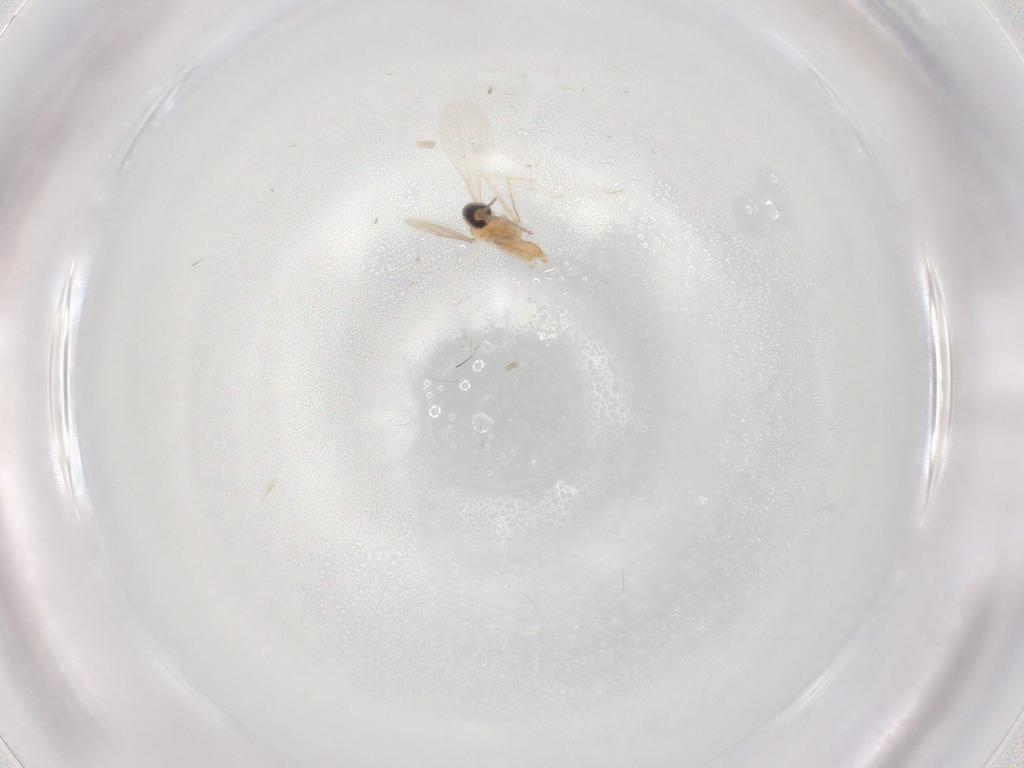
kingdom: Animalia
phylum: Arthropoda
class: Insecta
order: Diptera
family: Cecidomyiidae
